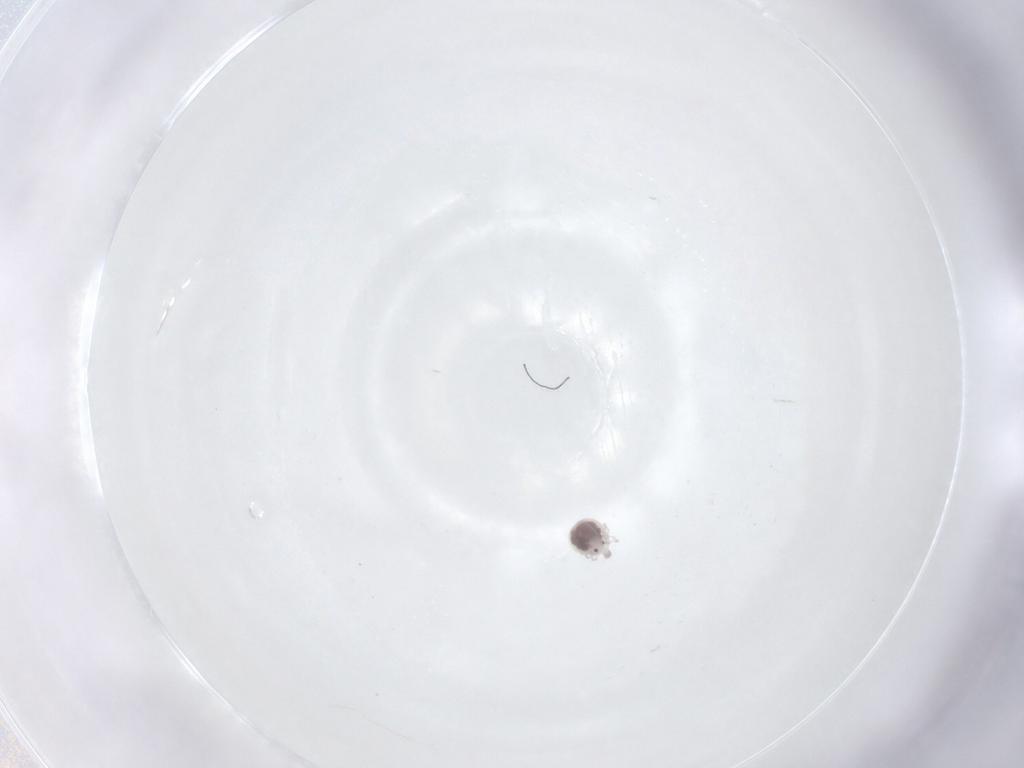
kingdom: Animalia
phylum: Arthropoda
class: Arachnida
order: Trombidiformes
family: Pionidae
